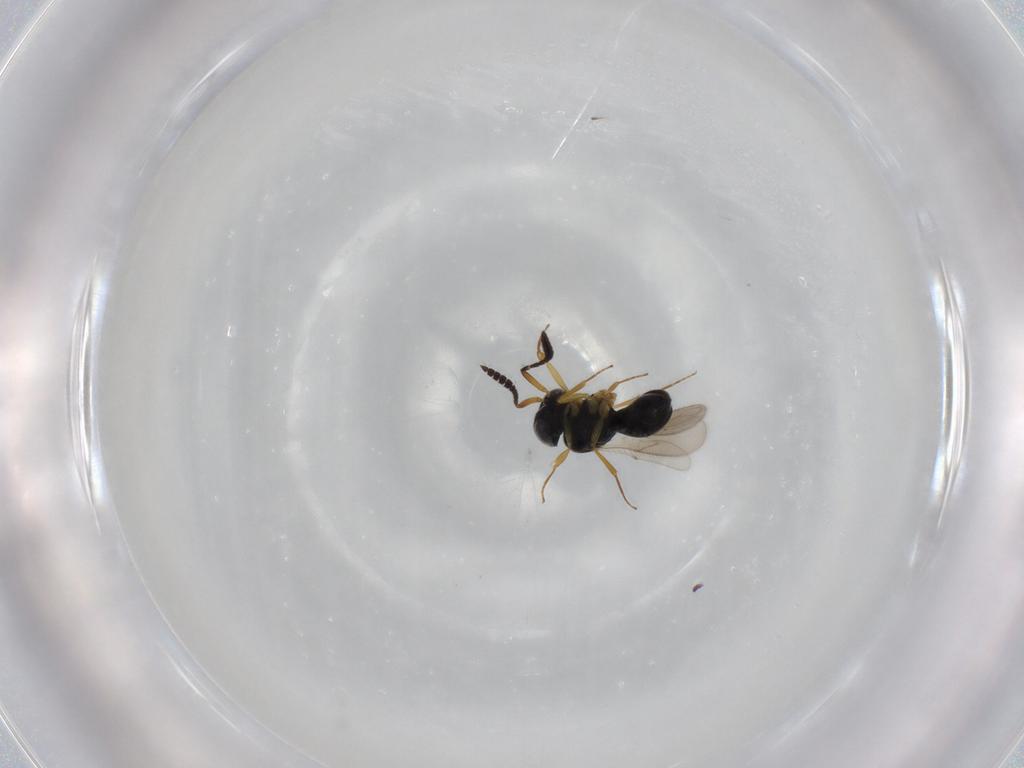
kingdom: Animalia
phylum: Arthropoda
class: Insecta
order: Hymenoptera
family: Scelionidae
